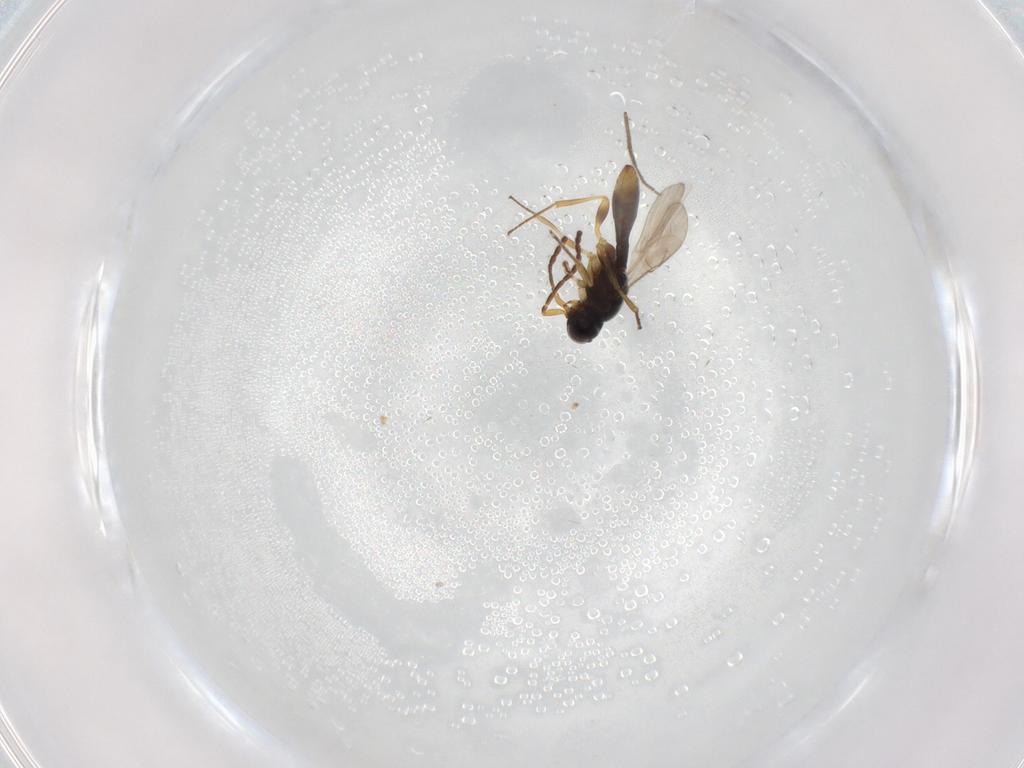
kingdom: Animalia
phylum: Arthropoda
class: Insecta
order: Hymenoptera
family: Scelionidae
